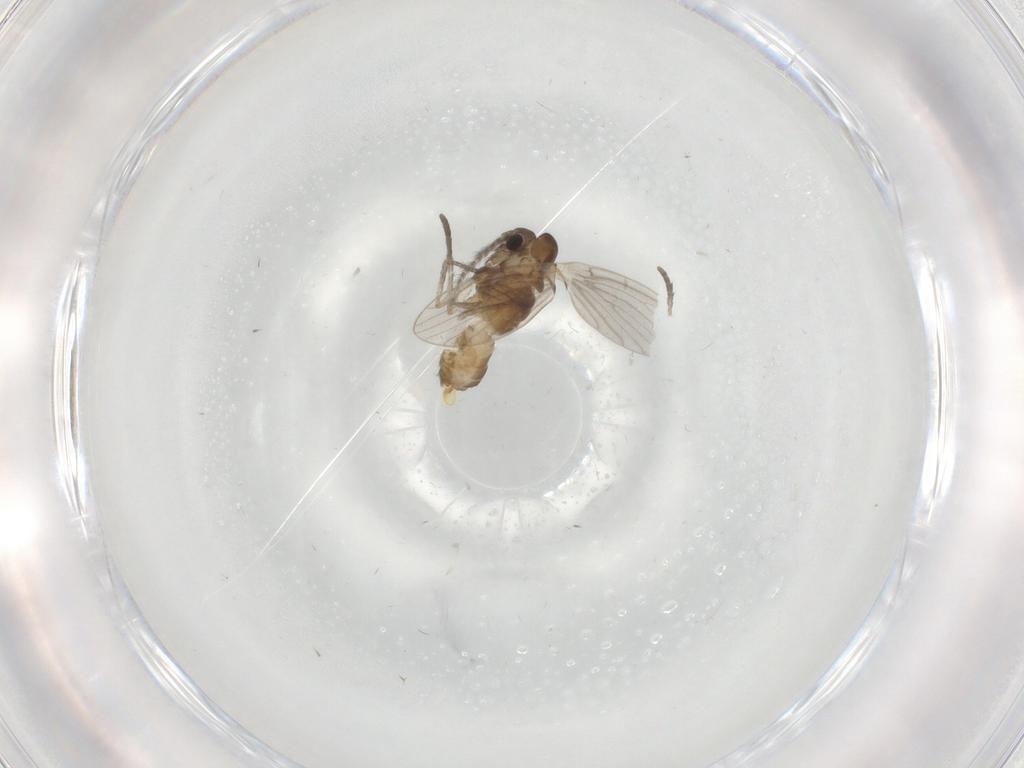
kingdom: Animalia
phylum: Arthropoda
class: Insecta
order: Diptera
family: Psychodidae
